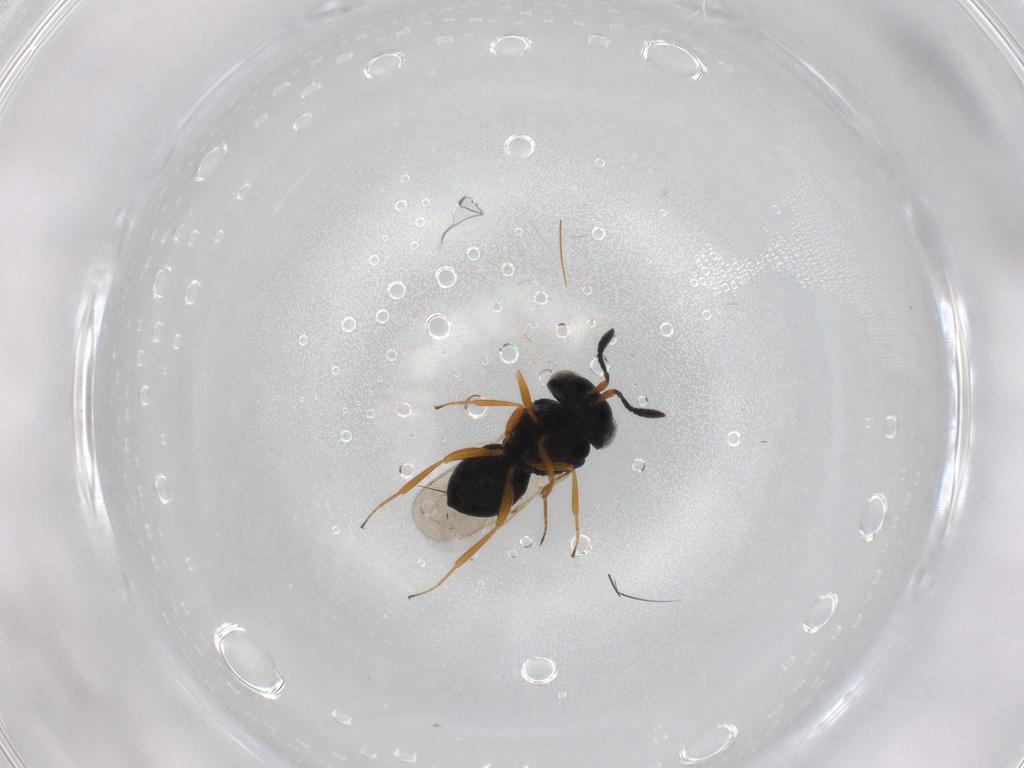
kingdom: Animalia
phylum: Arthropoda
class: Insecta
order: Hymenoptera
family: Scelionidae
